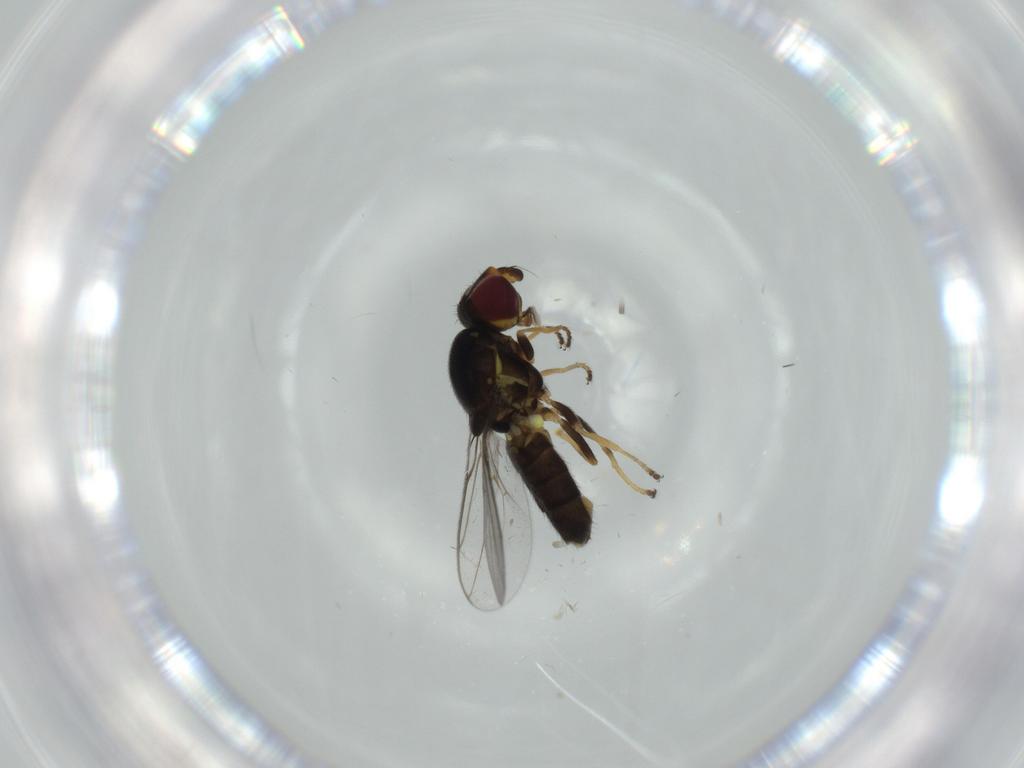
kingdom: Animalia
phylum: Arthropoda
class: Insecta
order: Diptera
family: Chloropidae
